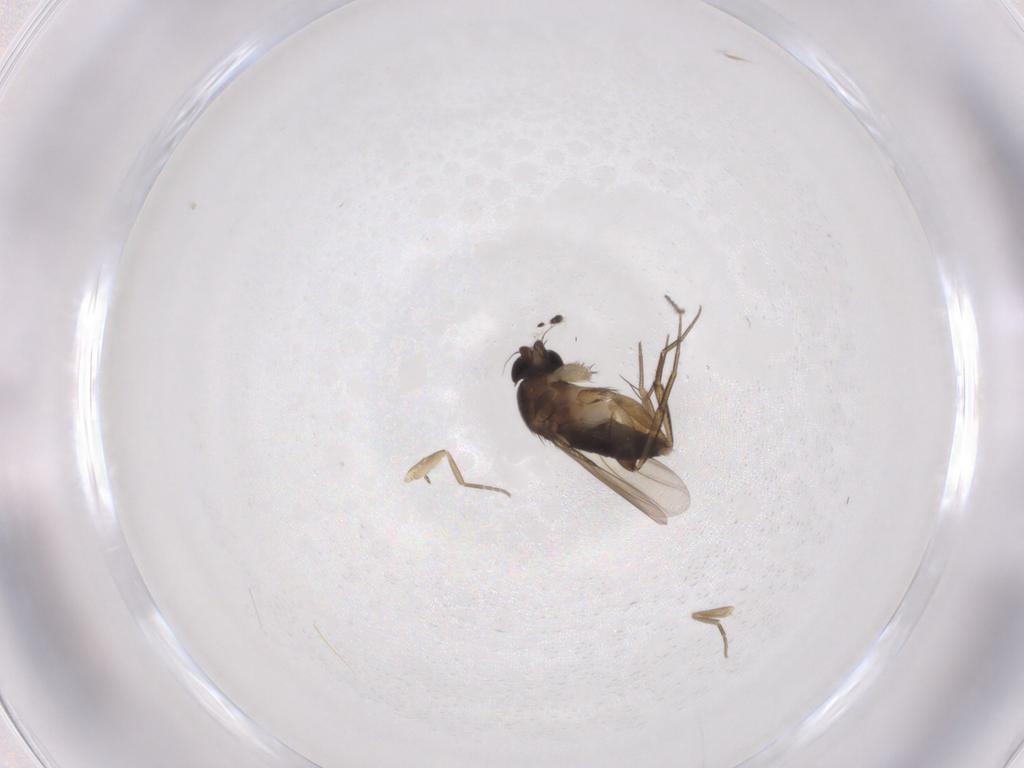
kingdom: Animalia
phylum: Arthropoda
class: Insecta
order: Diptera
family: Phoridae
